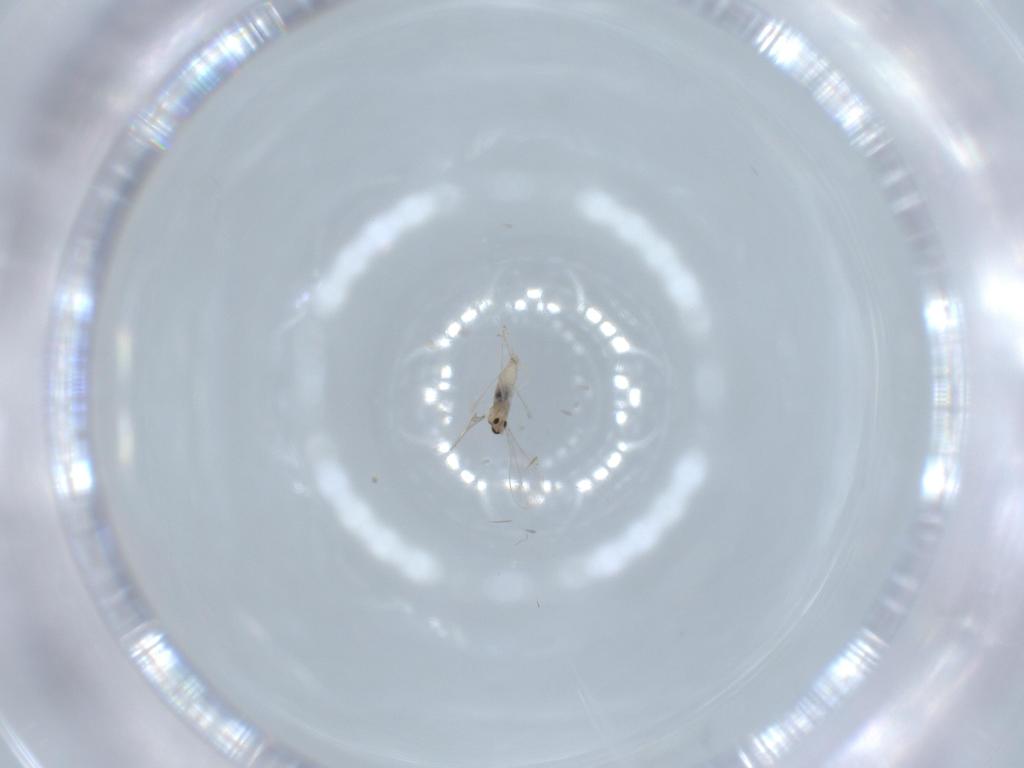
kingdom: Animalia
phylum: Arthropoda
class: Insecta
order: Diptera
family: Cecidomyiidae
